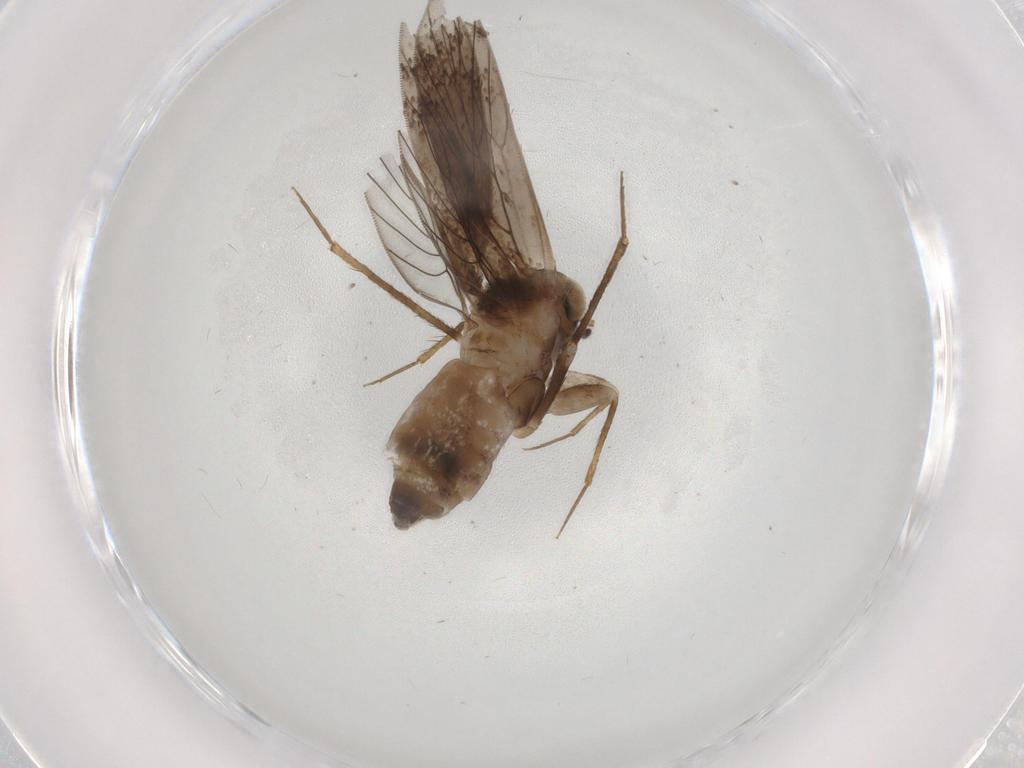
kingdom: Animalia
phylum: Arthropoda
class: Insecta
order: Psocodea
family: Lepidopsocidae
